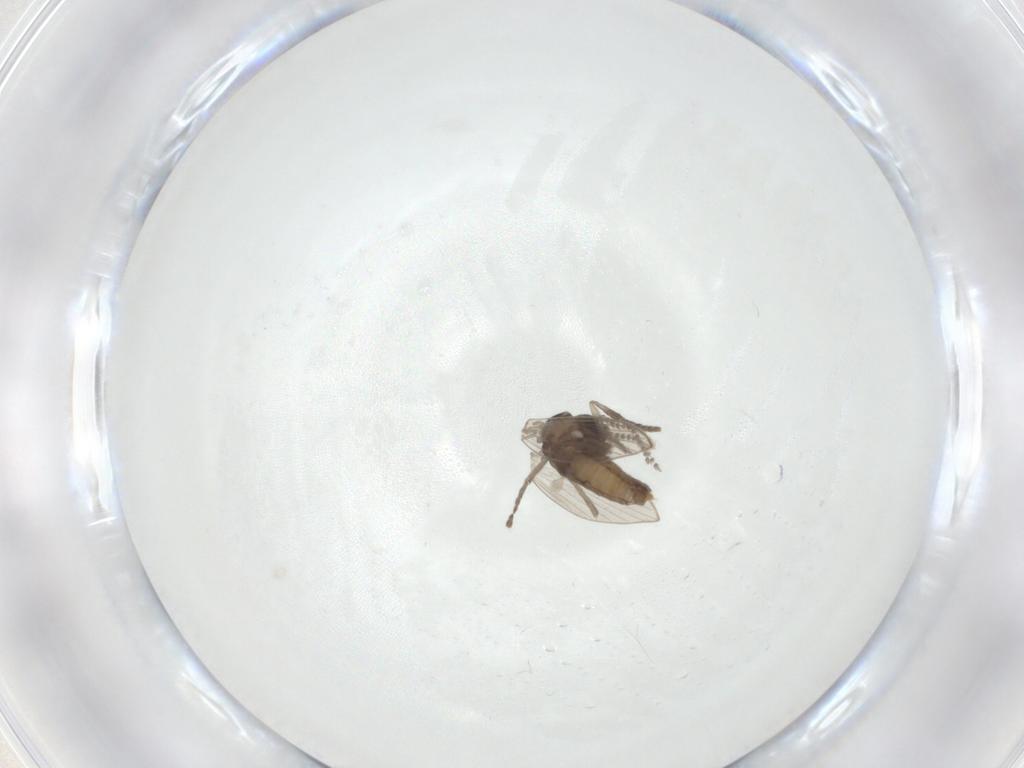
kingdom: Animalia
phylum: Arthropoda
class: Insecta
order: Diptera
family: Psychodidae
